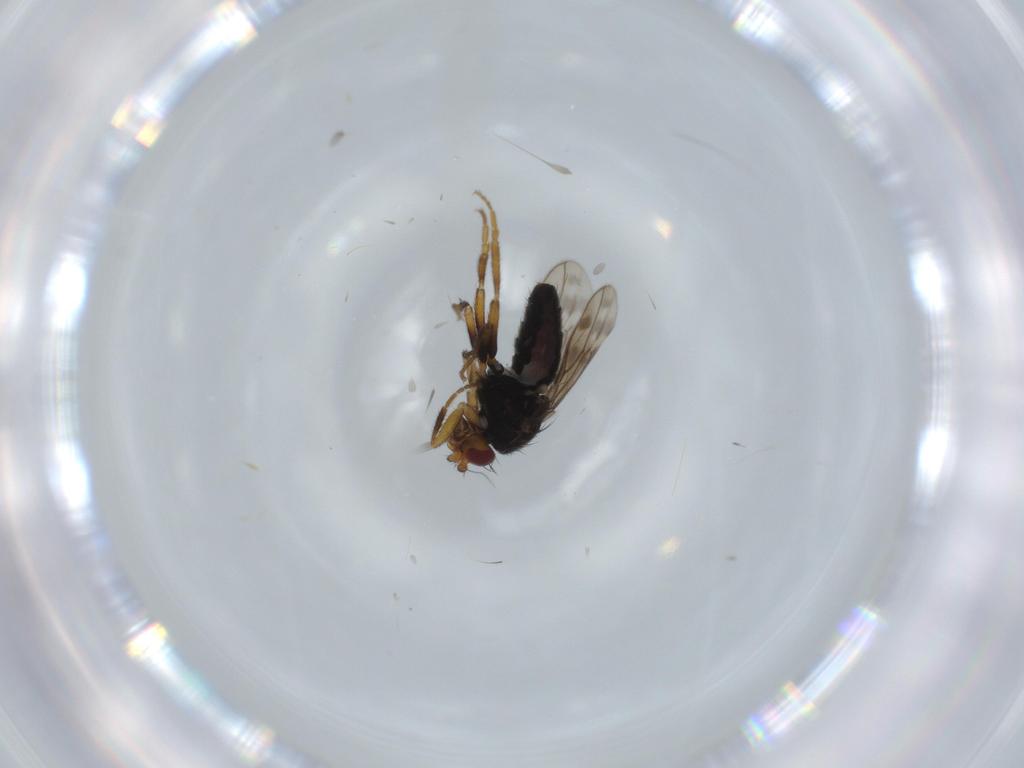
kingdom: Animalia
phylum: Arthropoda
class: Insecta
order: Diptera
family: Sphaeroceridae
